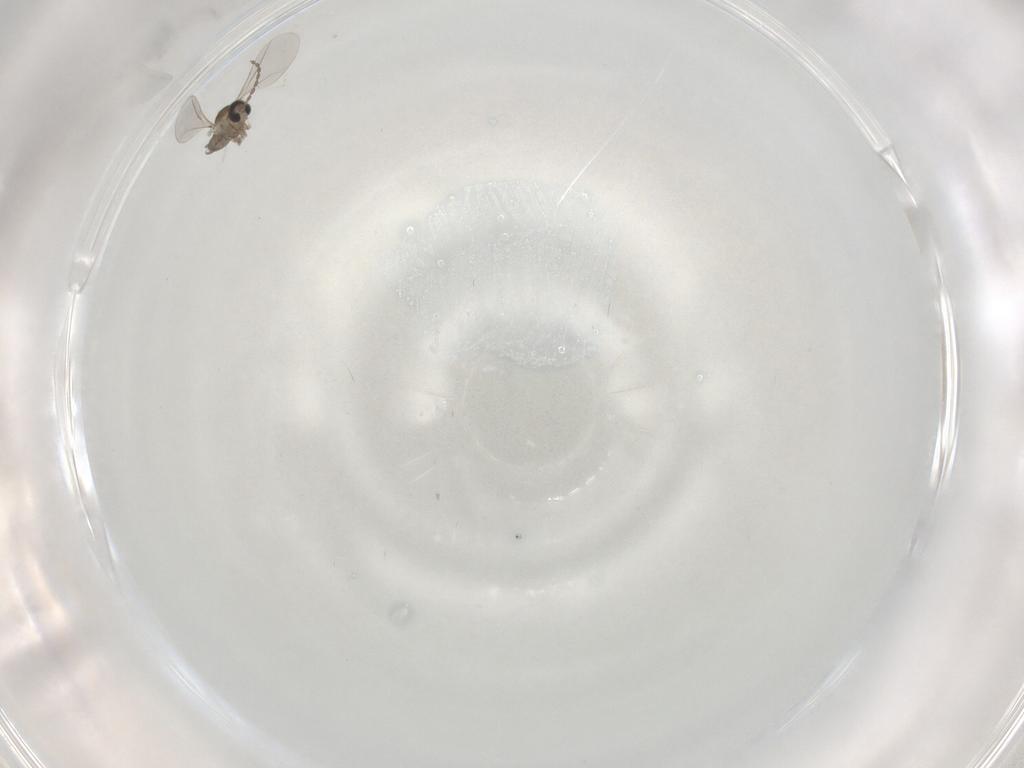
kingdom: Animalia
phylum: Arthropoda
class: Insecta
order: Diptera
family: Cecidomyiidae
